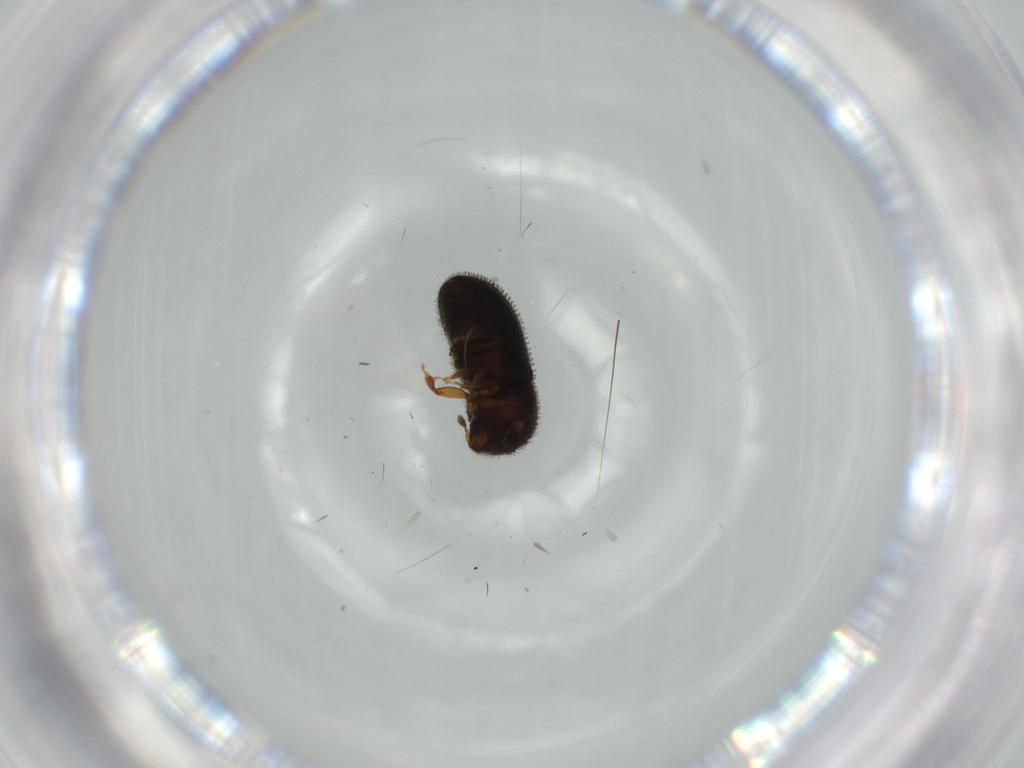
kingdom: Animalia
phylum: Arthropoda
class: Insecta
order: Coleoptera
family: Curculionidae
